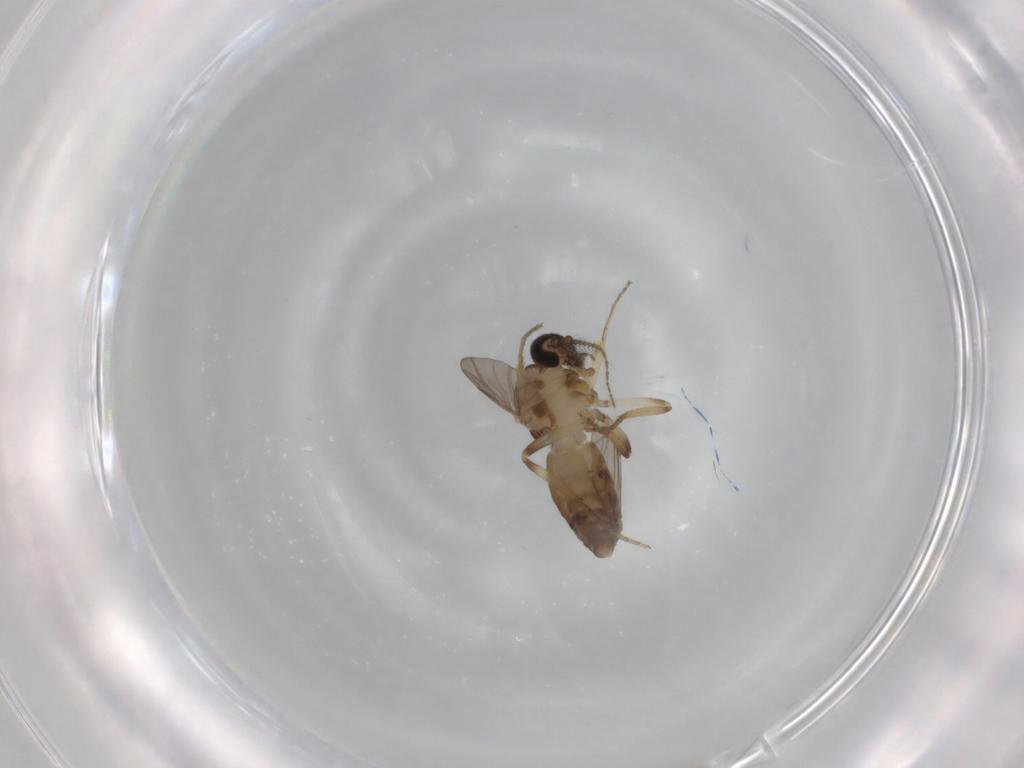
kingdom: Animalia
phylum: Arthropoda
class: Insecta
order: Diptera
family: Ceratopogonidae
